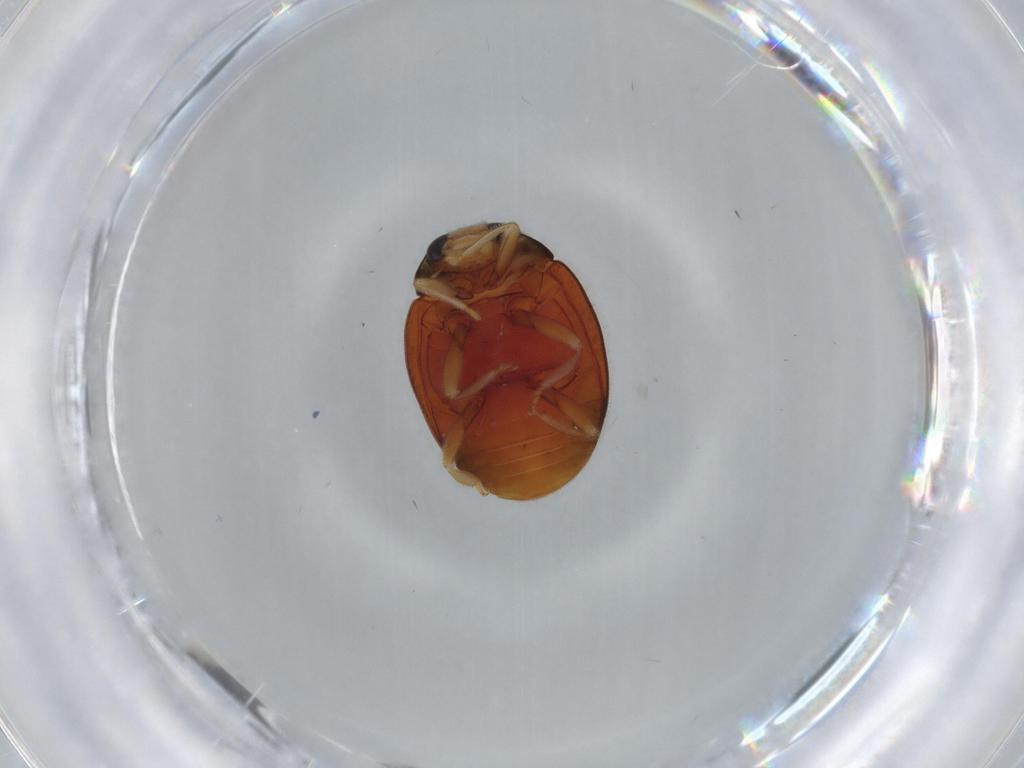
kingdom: Animalia
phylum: Arthropoda
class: Insecta
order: Coleoptera
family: Coccinellidae
